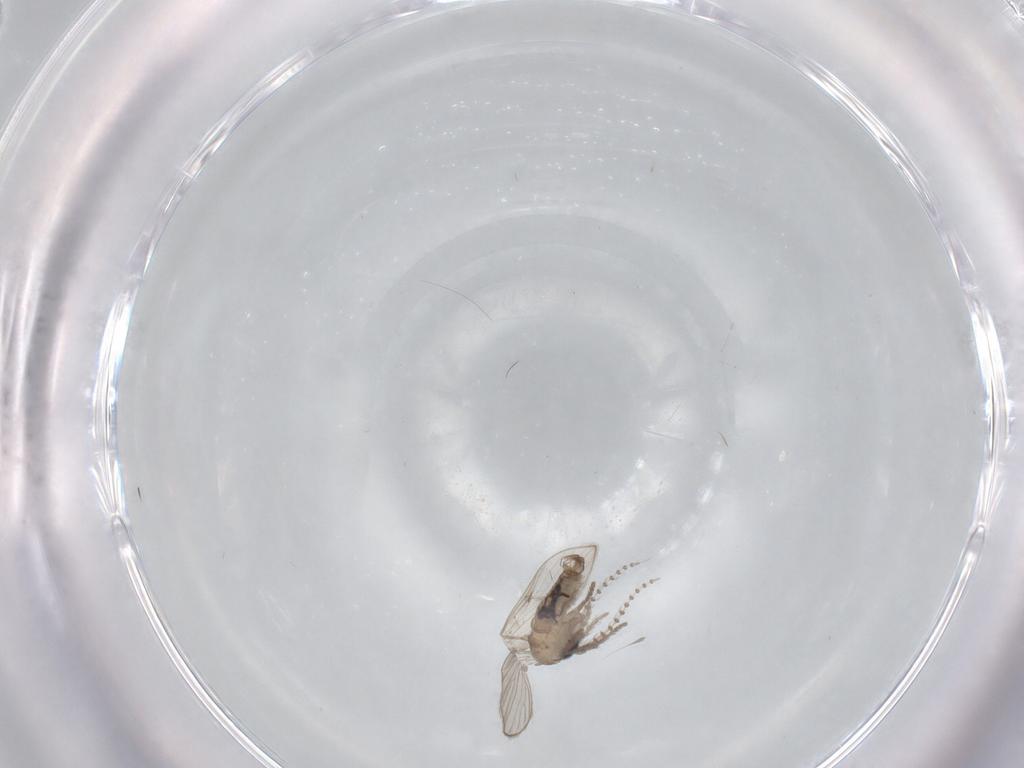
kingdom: Animalia
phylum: Arthropoda
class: Insecta
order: Diptera
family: Psychodidae
